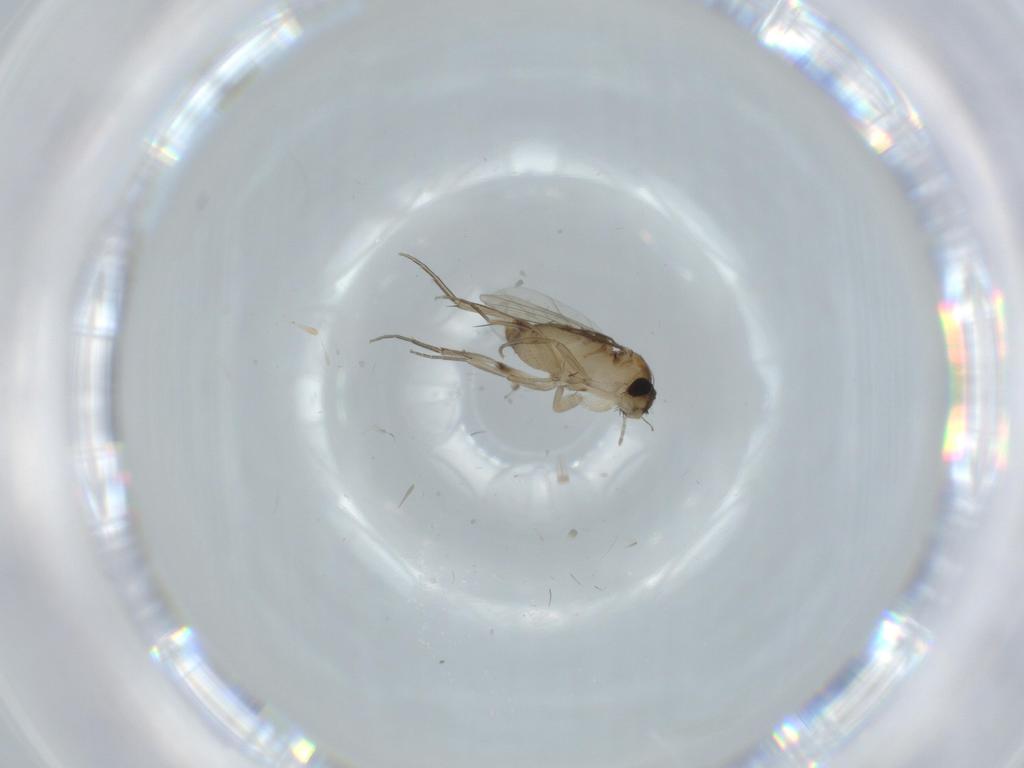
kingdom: Animalia
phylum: Arthropoda
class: Insecta
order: Diptera
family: Phoridae
